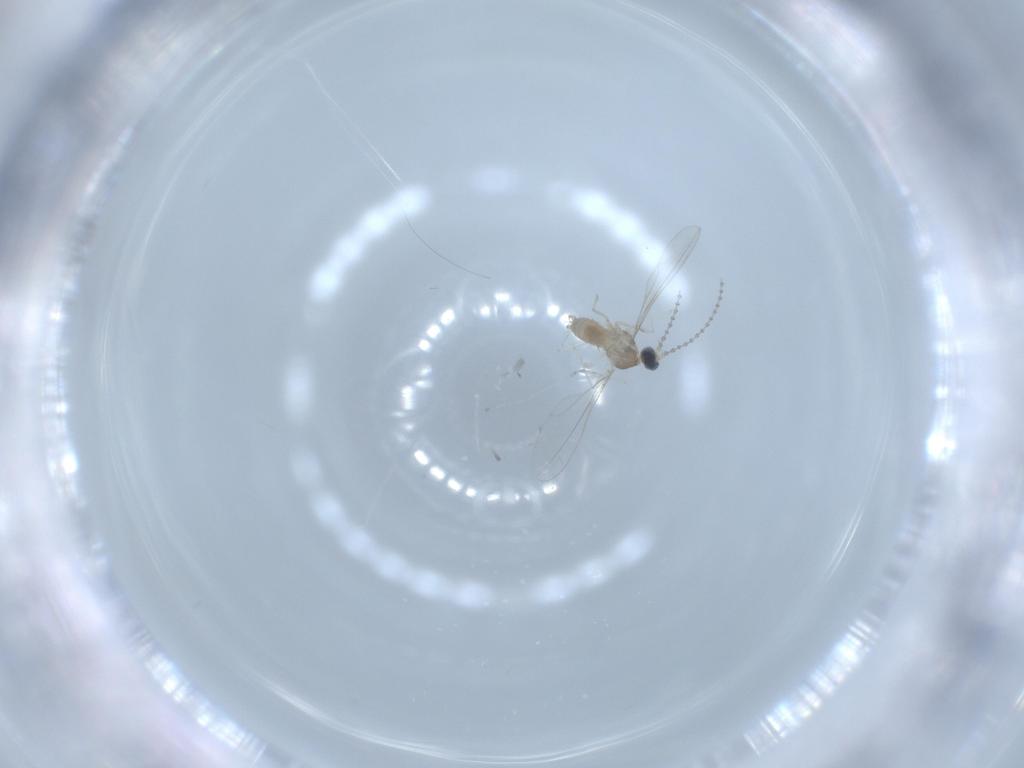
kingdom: Animalia
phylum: Arthropoda
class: Insecta
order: Diptera
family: Cecidomyiidae
